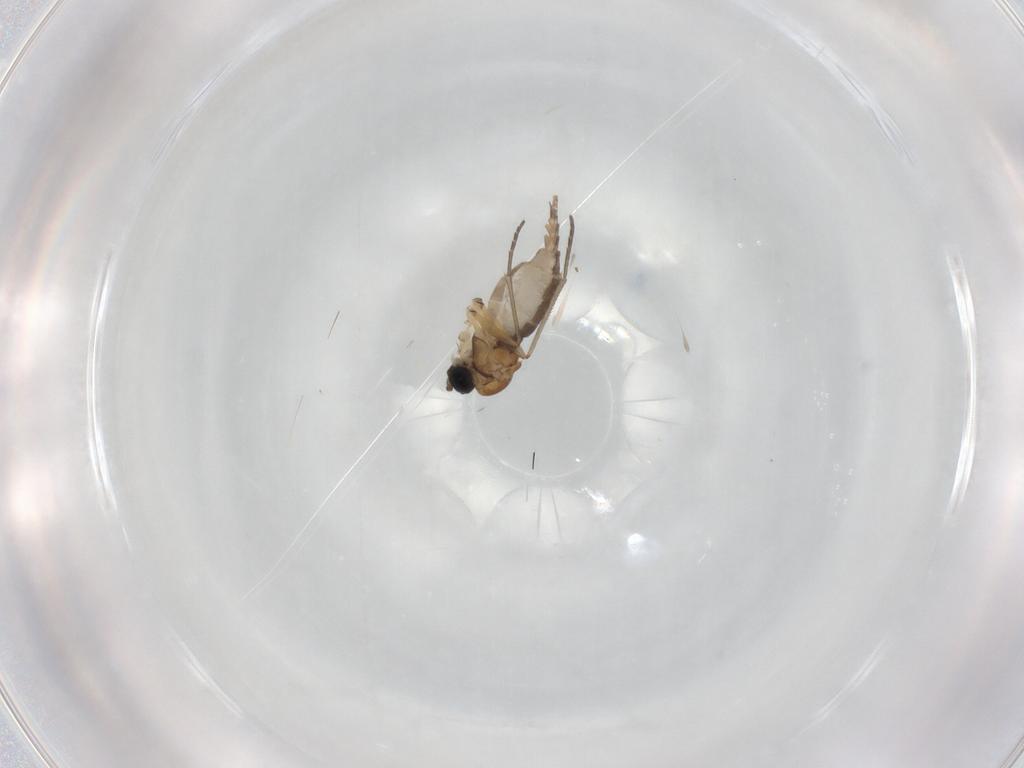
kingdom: Animalia
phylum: Arthropoda
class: Insecta
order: Diptera
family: Sciaridae
